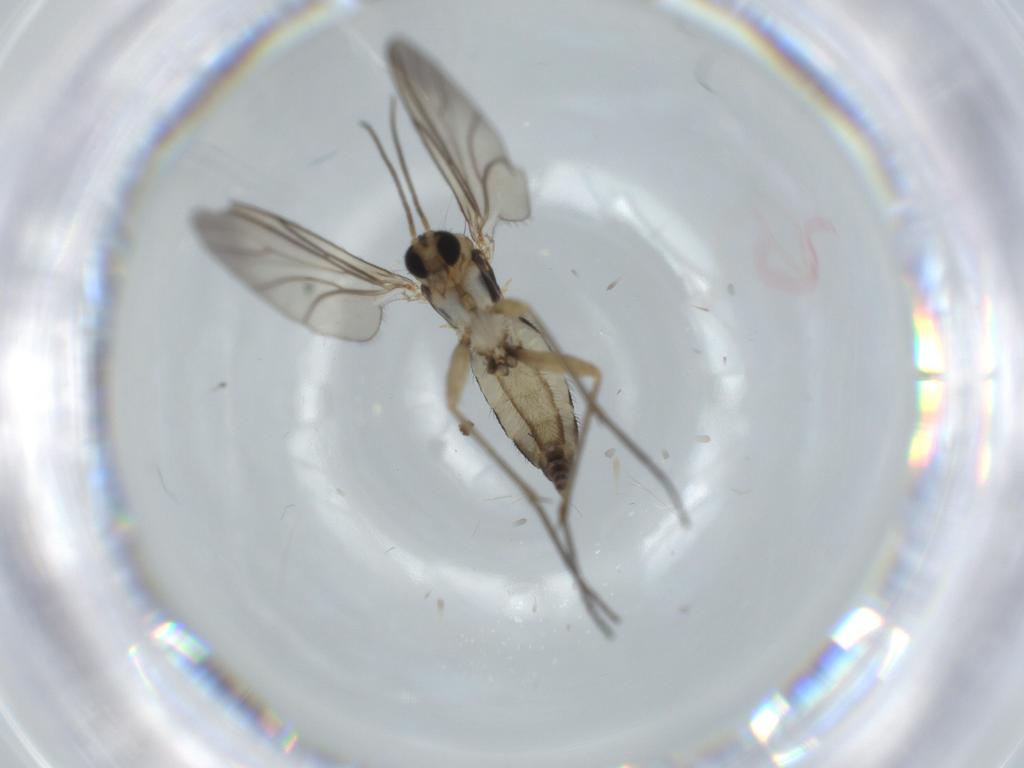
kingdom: Animalia
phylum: Arthropoda
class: Insecta
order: Diptera
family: Sciaridae
